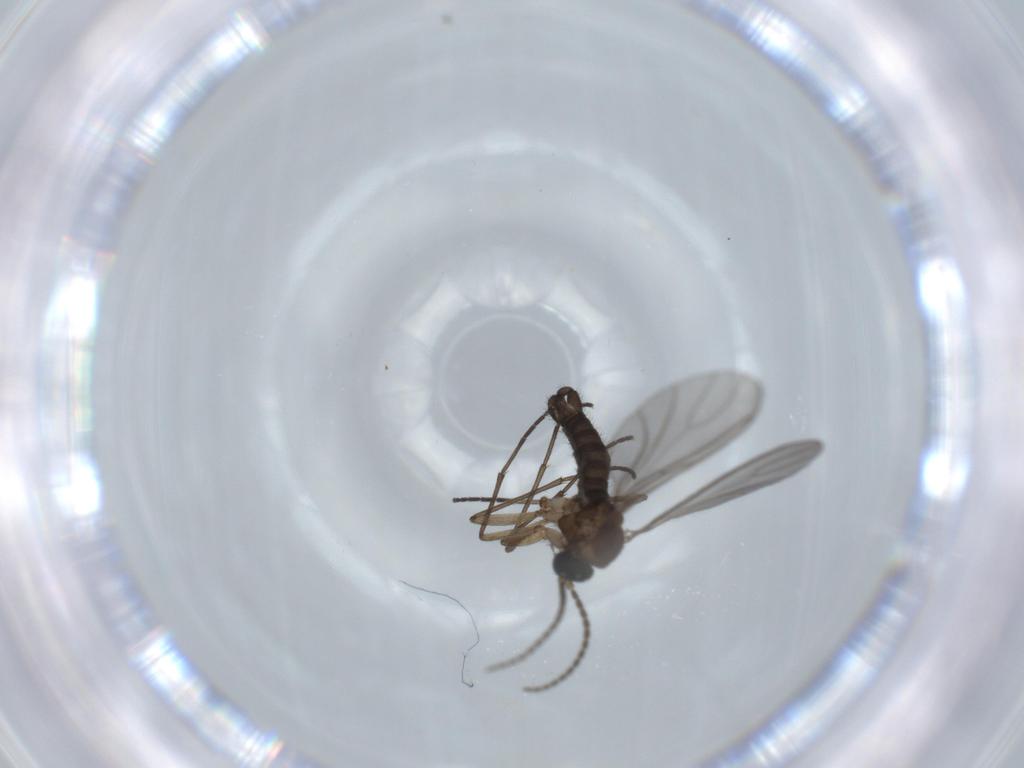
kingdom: Animalia
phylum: Arthropoda
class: Insecta
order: Diptera
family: Sciaridae
